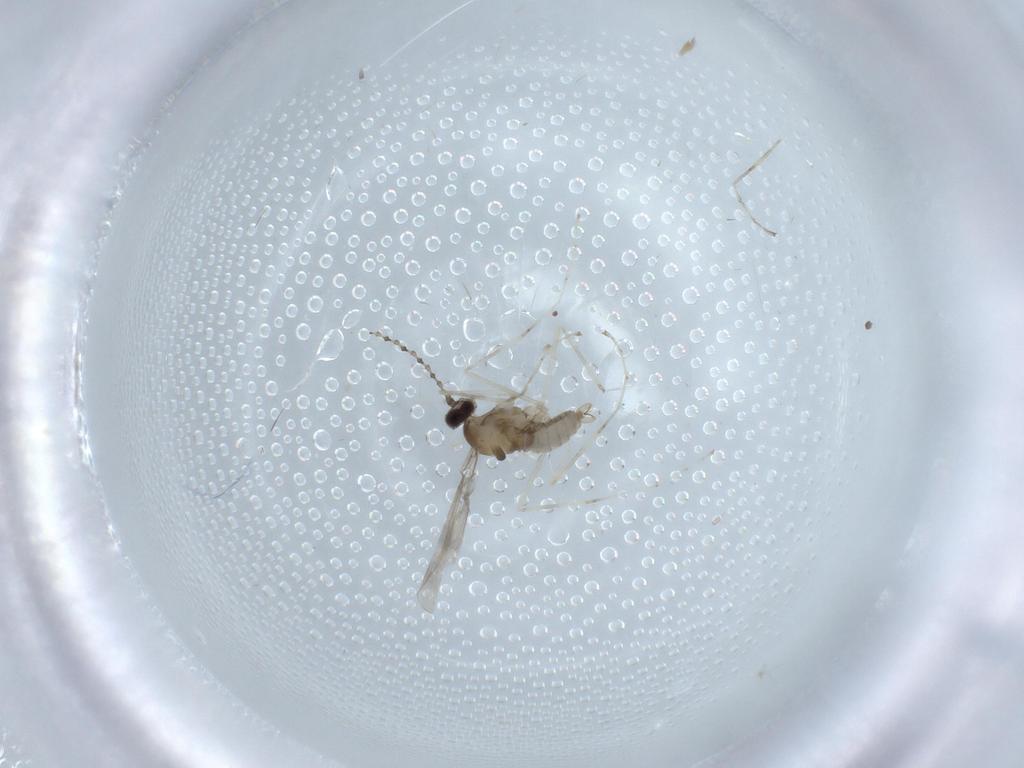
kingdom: Animalia
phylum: Arthropoda
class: Insecta
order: Diptera
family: Cecidomyiidae
